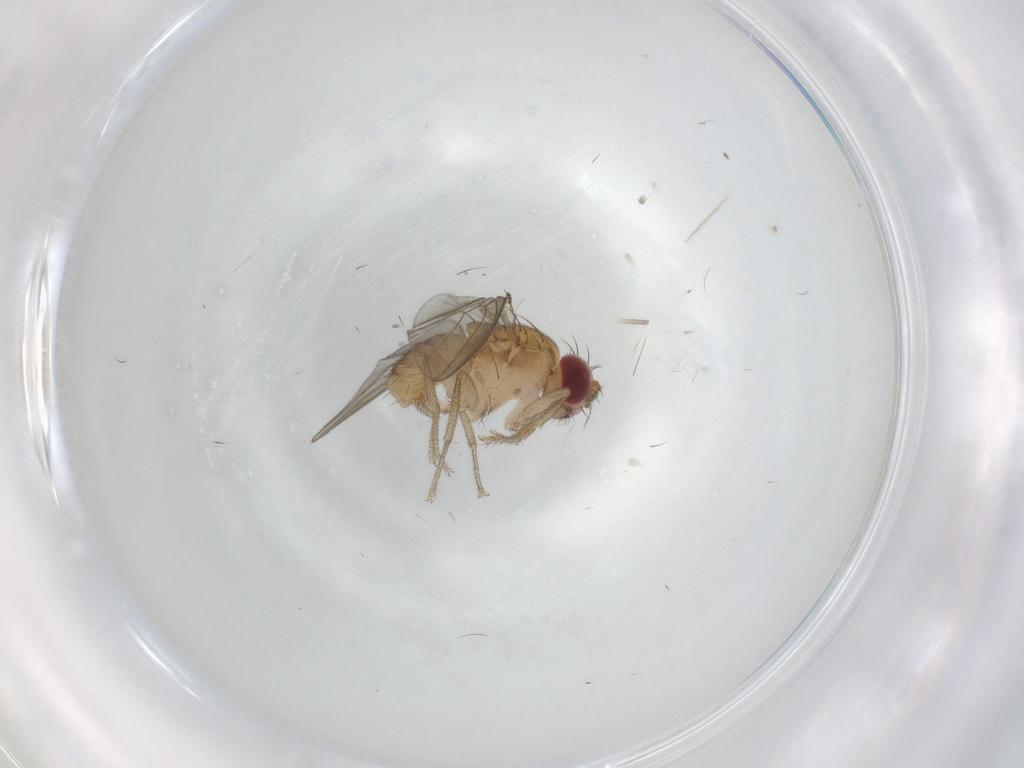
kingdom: Animalia
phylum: Arthropoda
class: Insecta
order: Diptera
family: Drosophilidae
